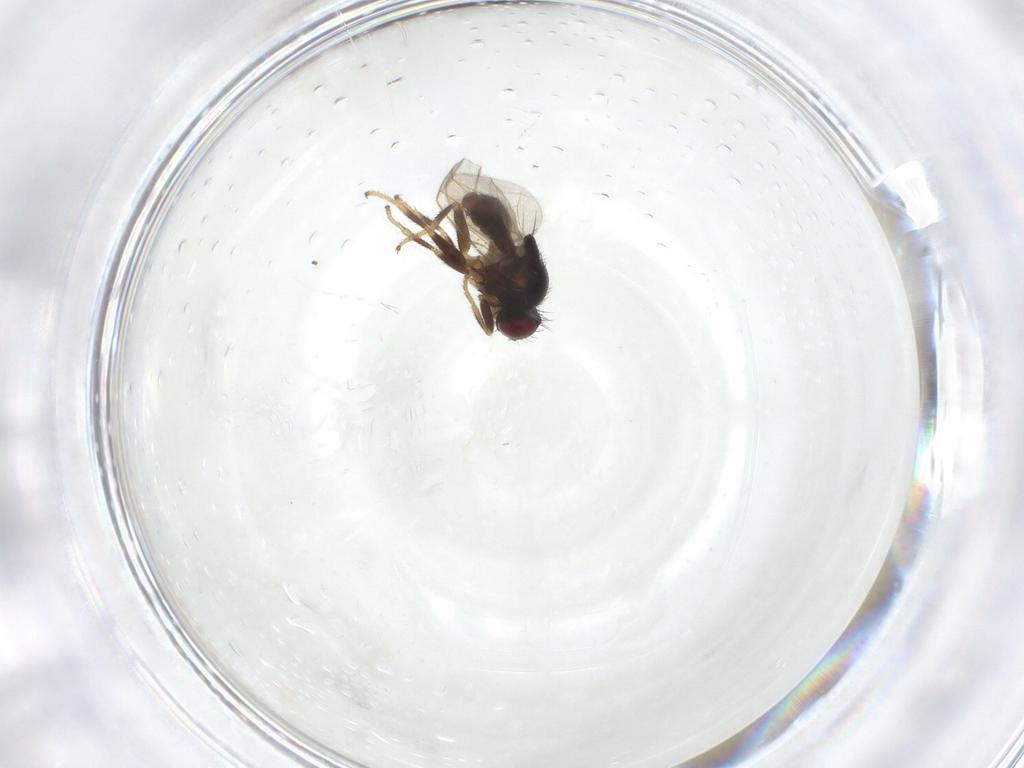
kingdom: Animalia
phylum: Arthropoda
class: Insecta
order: Diptera
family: Chloropidae
